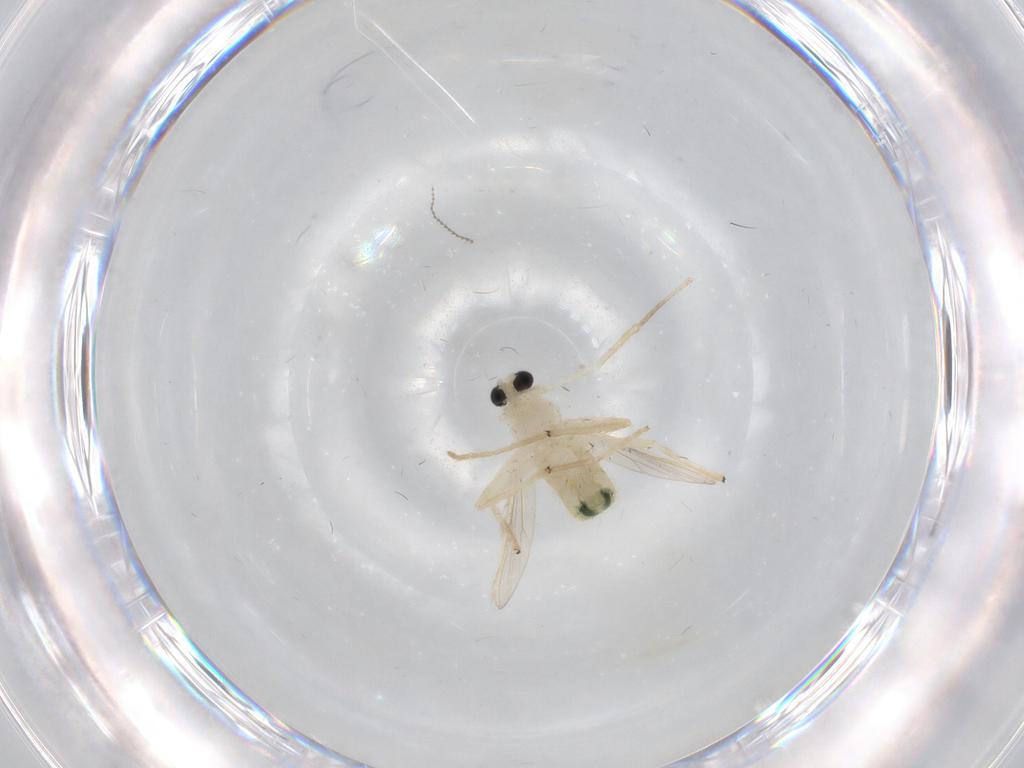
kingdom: Animalia
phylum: Arthropoda
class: Insecta
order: Diptera
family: Chironomidae
